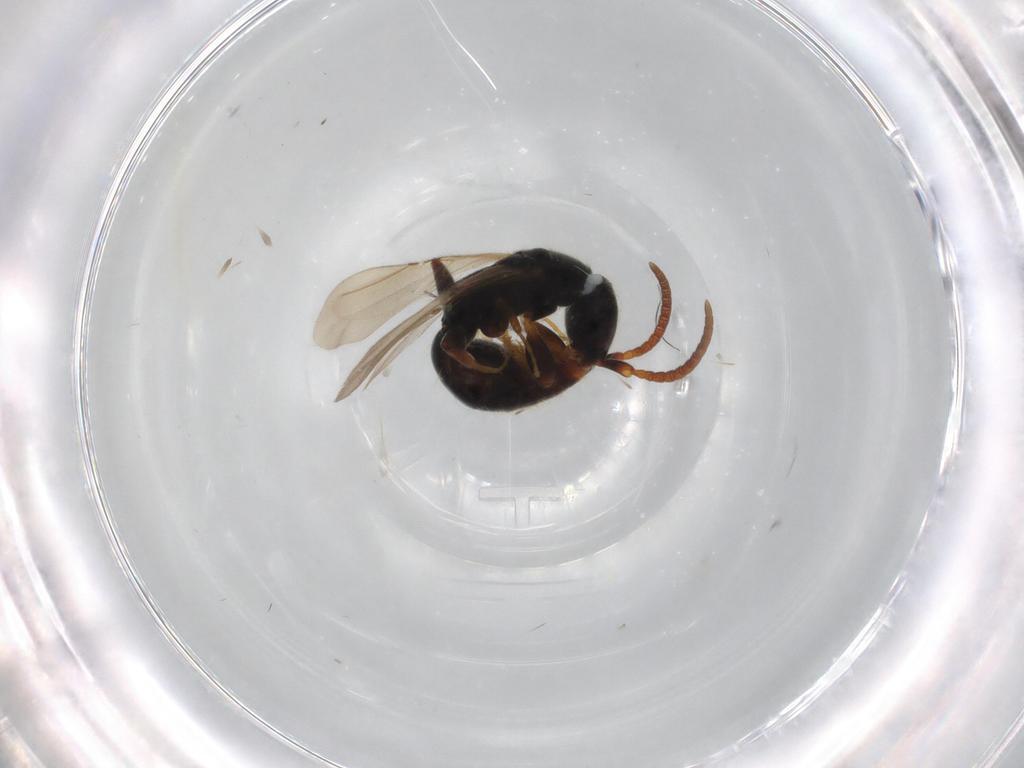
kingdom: Animalia
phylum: Arthropoda
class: Insecta
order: Hymenoptera
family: Bethylidae
